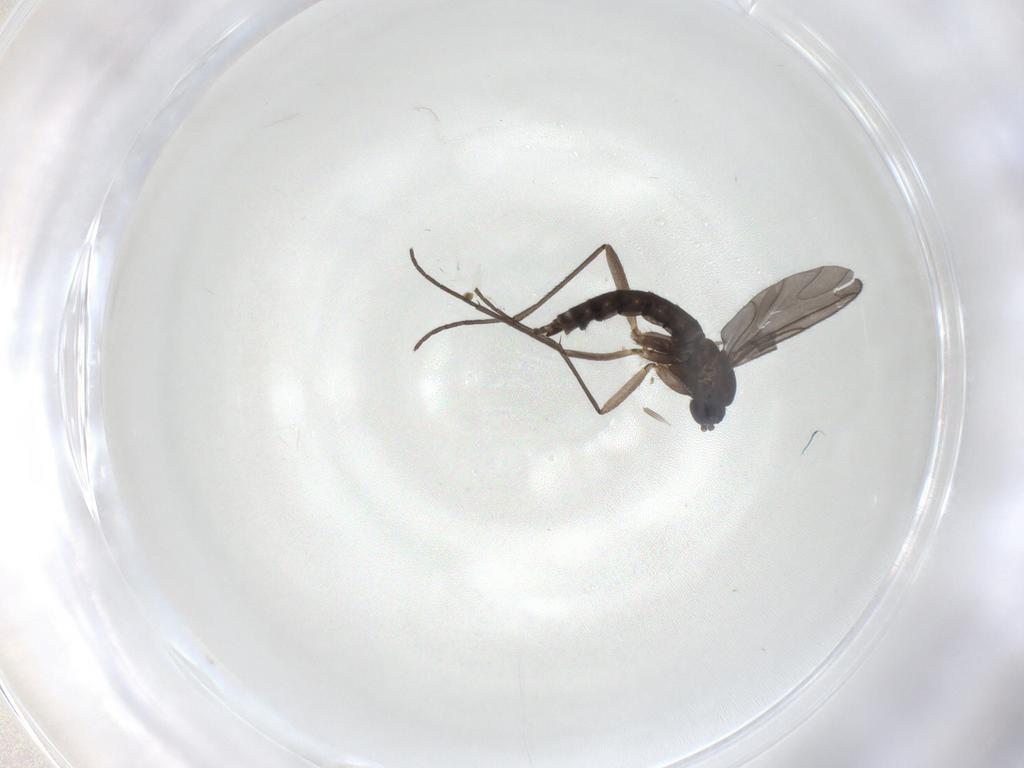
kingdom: Animalia
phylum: Arthropoda
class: Insecta
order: Diptera
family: Sciaridae
